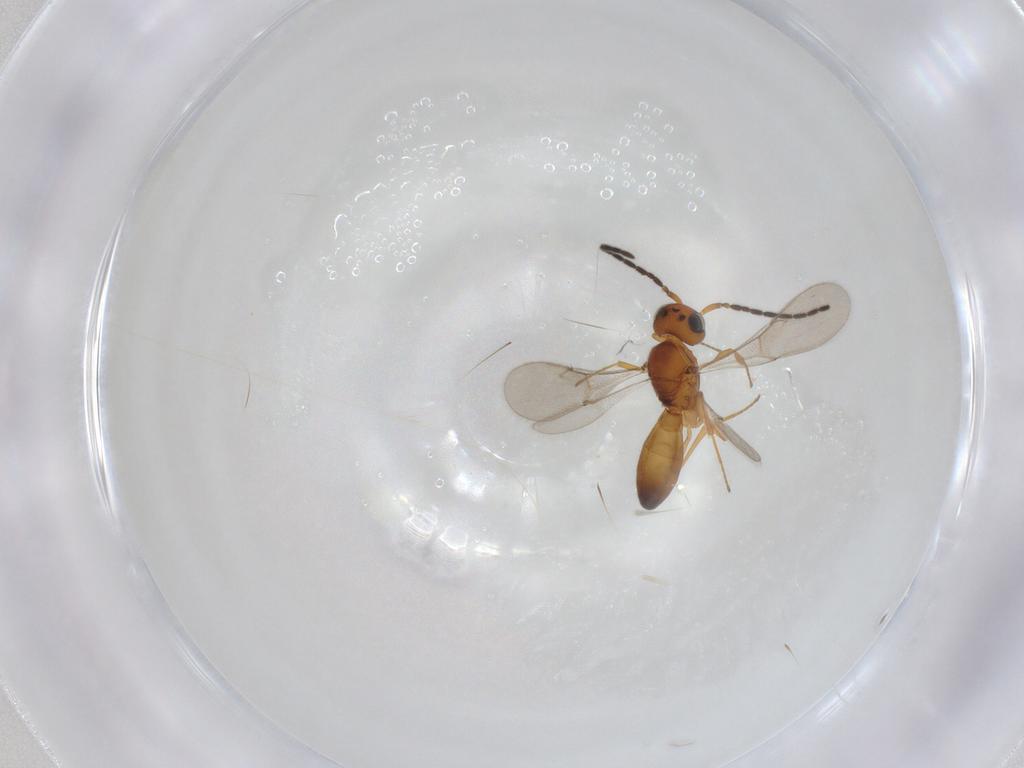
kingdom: Animalia
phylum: Arthropoda
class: Insecta
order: Hymenoptera
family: Scelionidae
